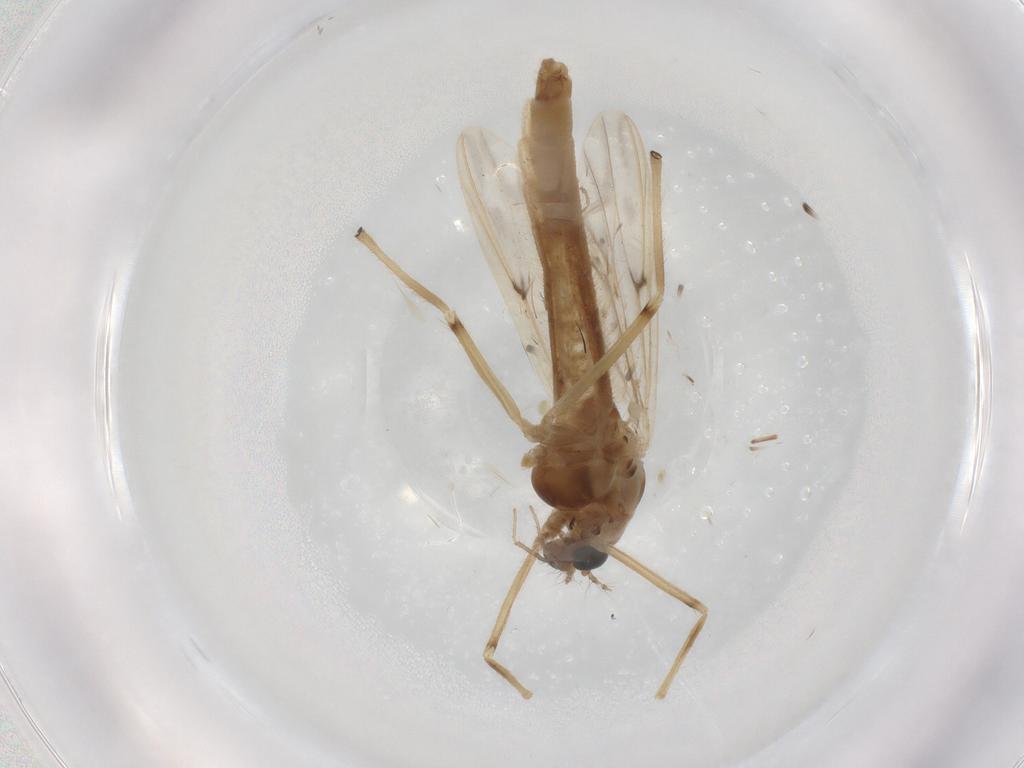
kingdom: Animalia
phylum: Arthropoda
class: Insecta
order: Diptera
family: Chironomidae
